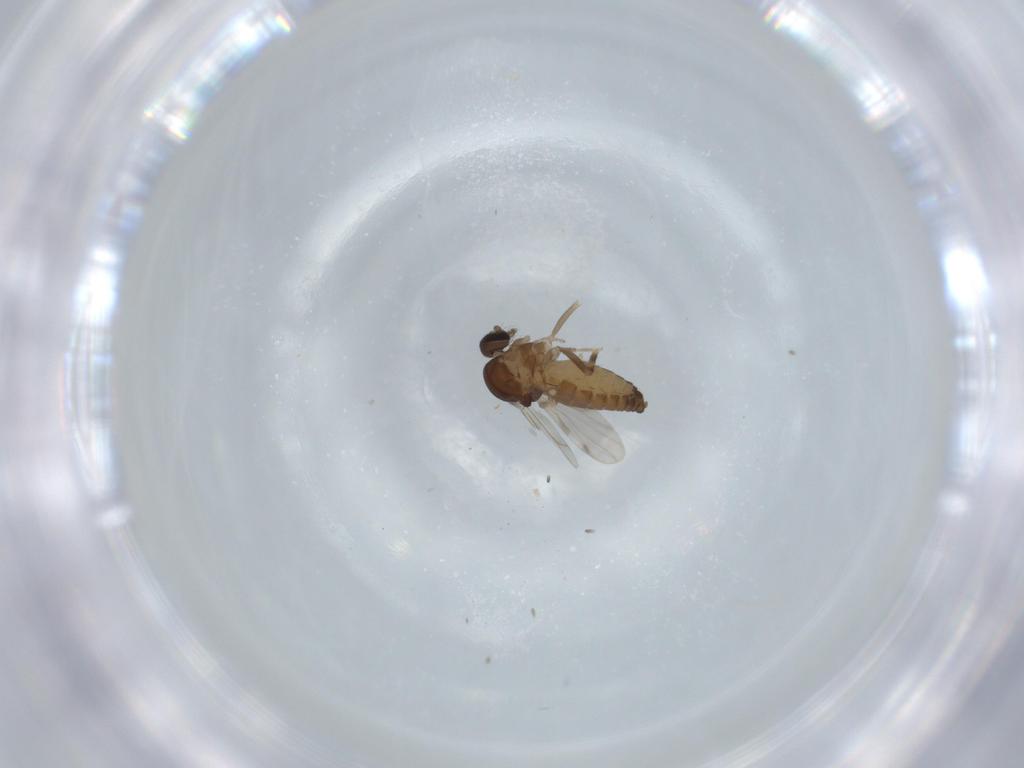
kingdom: Animalia
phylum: Arthropoda
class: Insecta
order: Diptera
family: Ceratopogonidae
